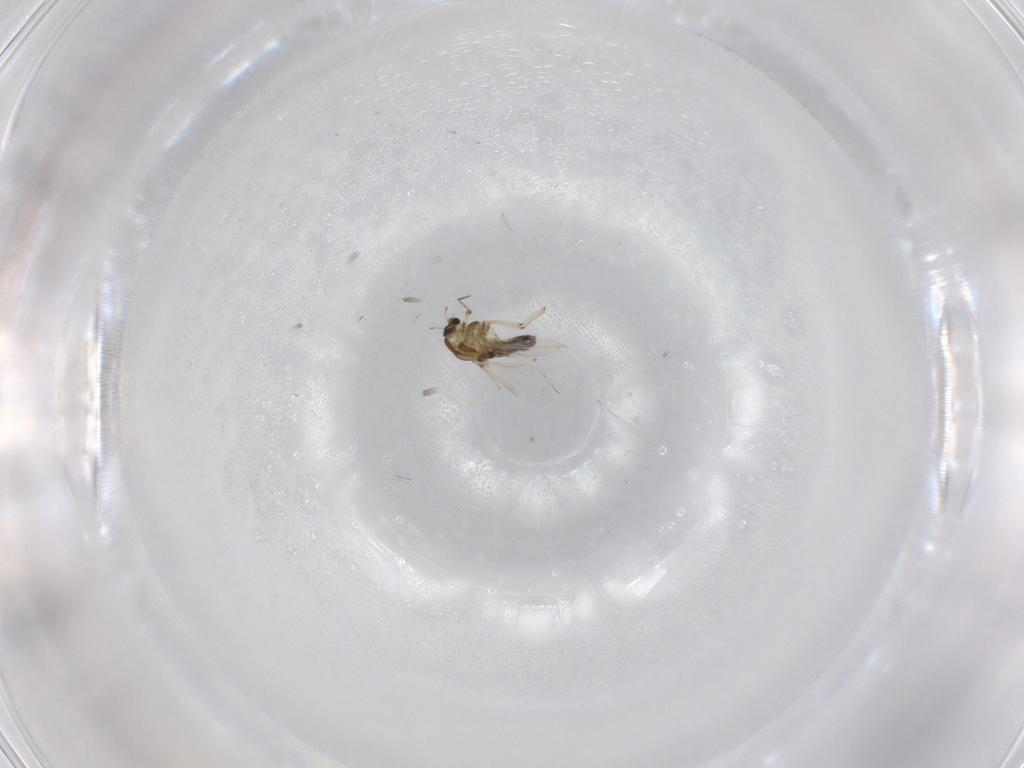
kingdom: Animalia
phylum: Arthropoda
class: Insecta
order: Diptera
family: Chironomidae
